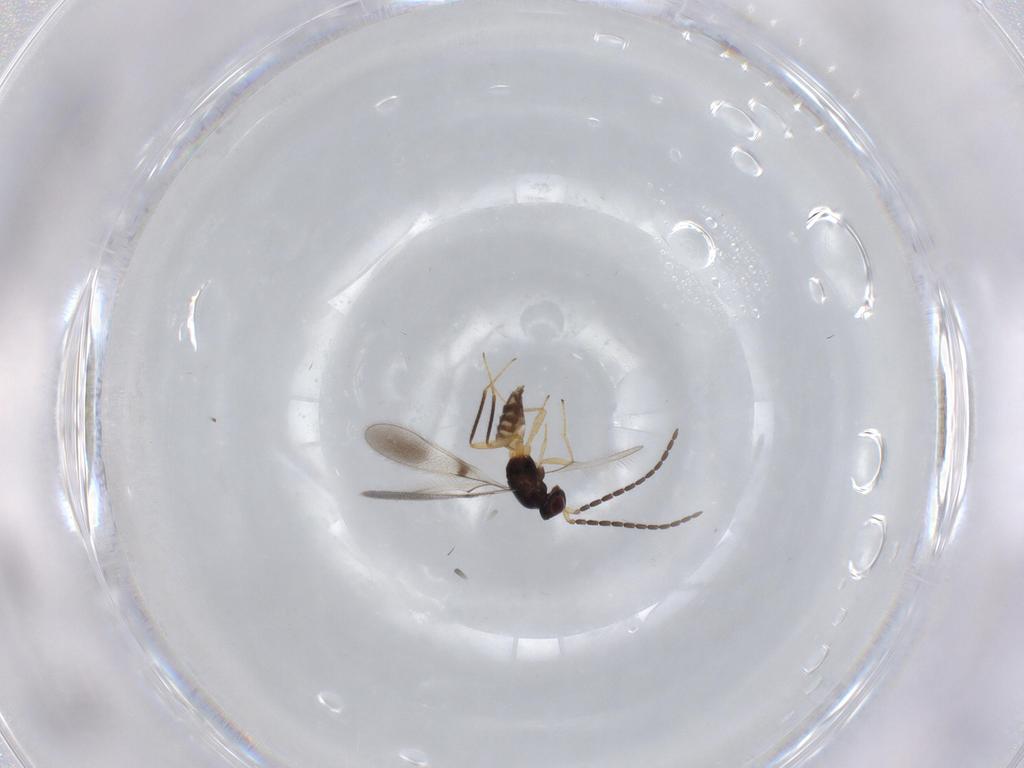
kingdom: Animalia
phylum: Arthropoda
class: Insecta
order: Hymenoptera
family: Mymaridae
